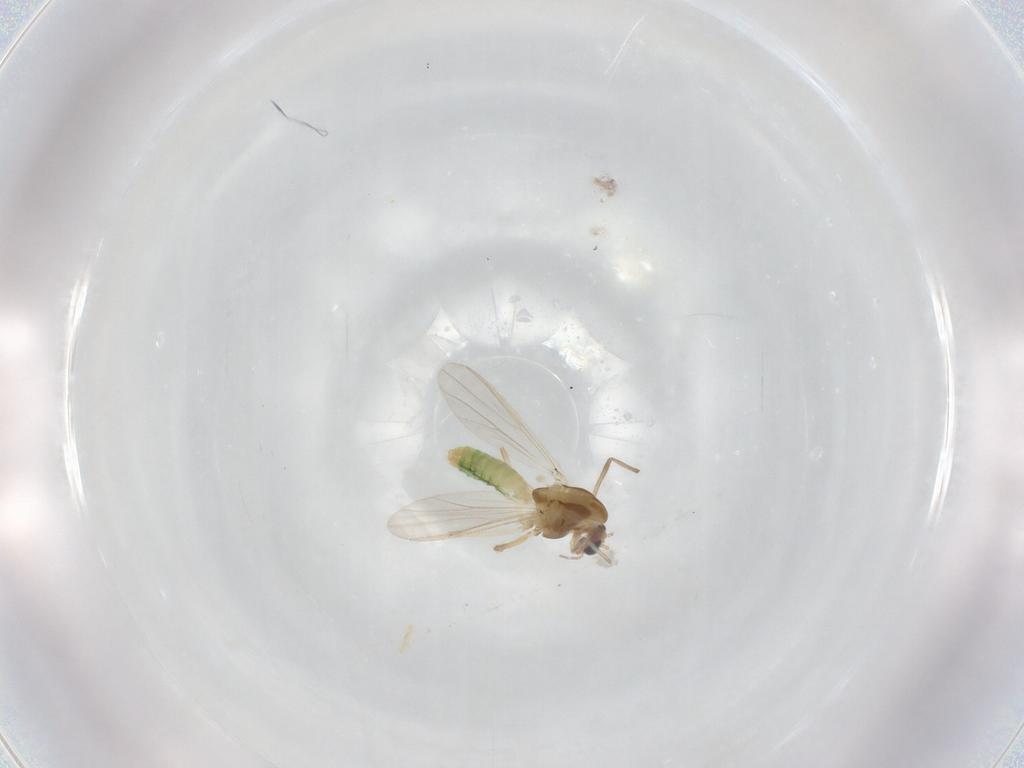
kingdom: Animalia
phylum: Arthropoda
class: Insecta
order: Diptera
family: Chironomidae
